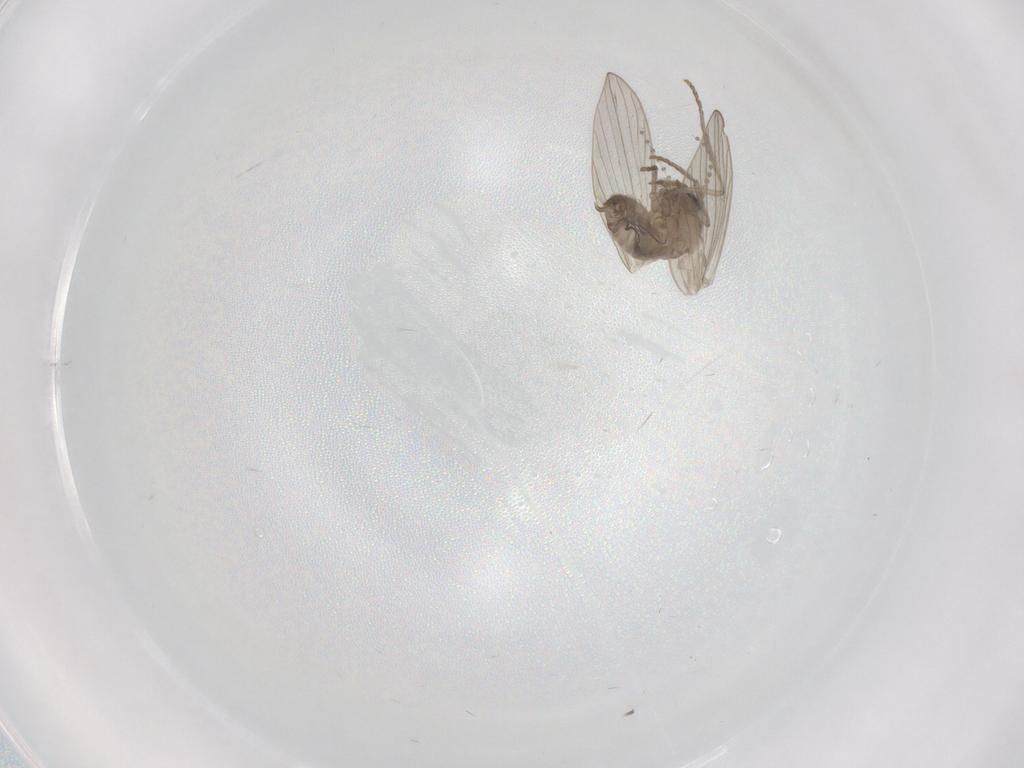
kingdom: Animalia
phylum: Arthropoda
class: Insecta
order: Diptera
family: Psychodidae
